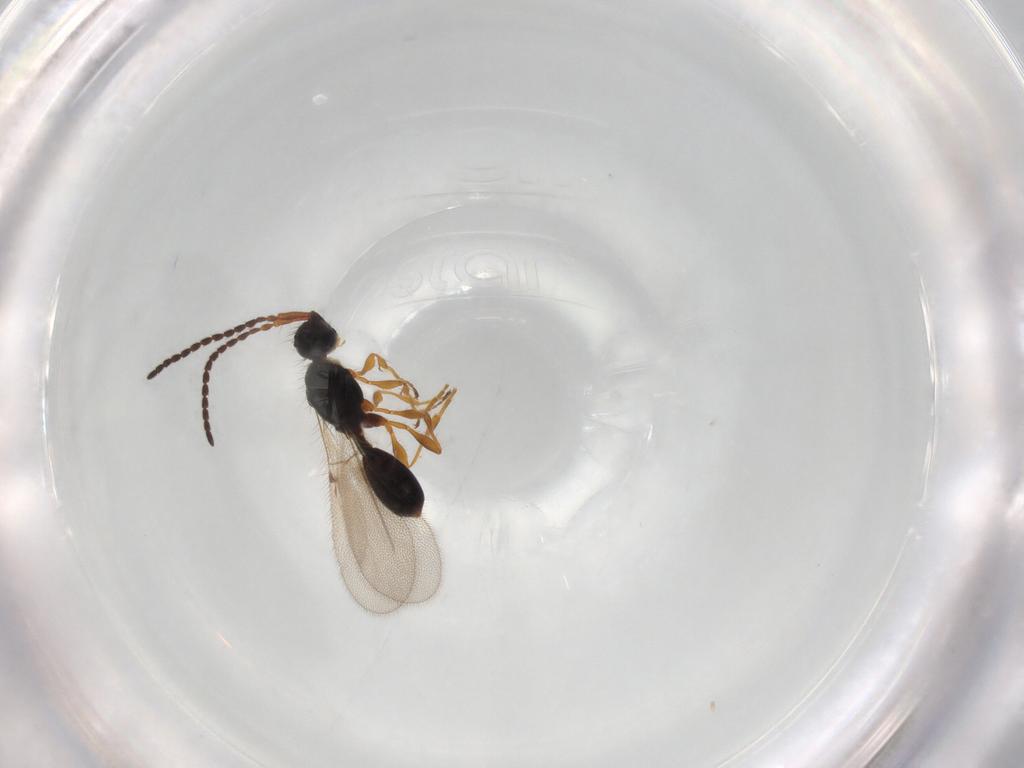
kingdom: Animalia
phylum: Arthropoda
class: Insecta
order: Hymenoptera
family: Diapriidae
